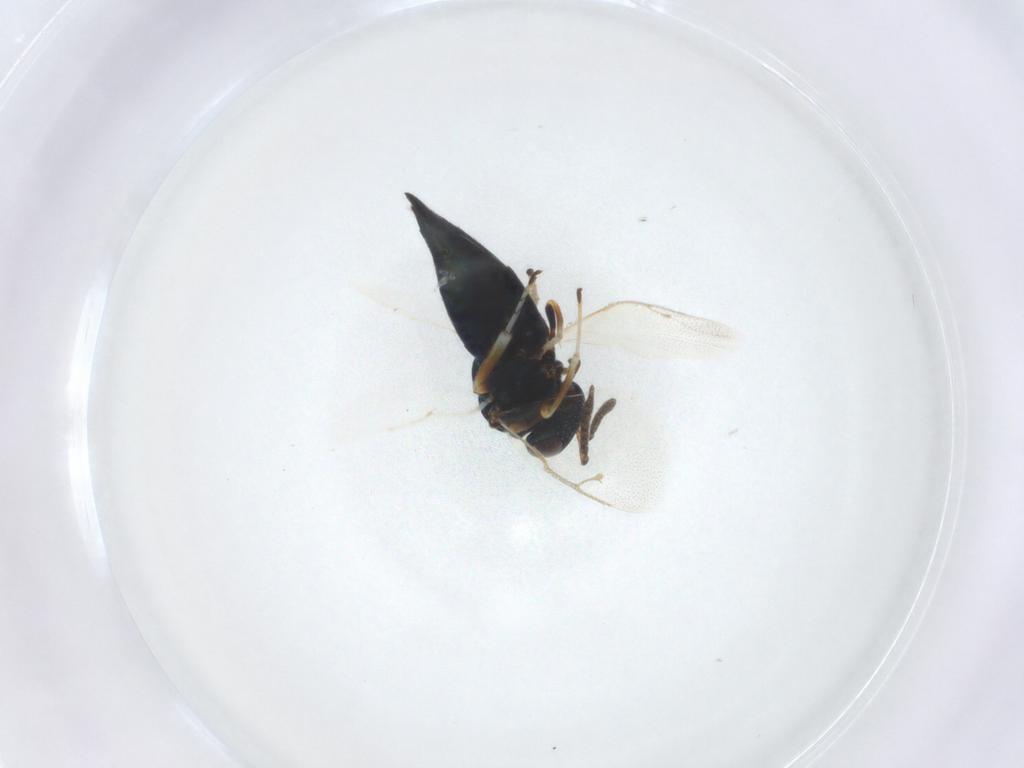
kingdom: Animalia
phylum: Arthropoda
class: Insecta
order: Hymenoptera
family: Pteromalidae
